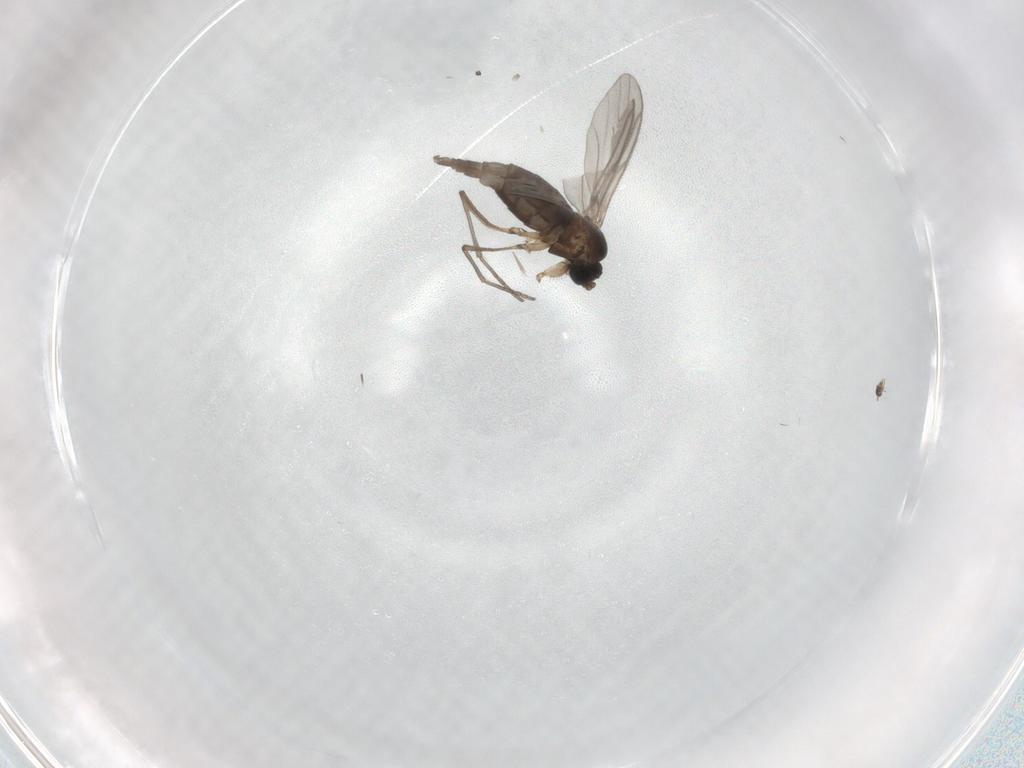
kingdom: Animalia
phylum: Arthropoda
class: Insecta
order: Diptera
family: Sciaridae
